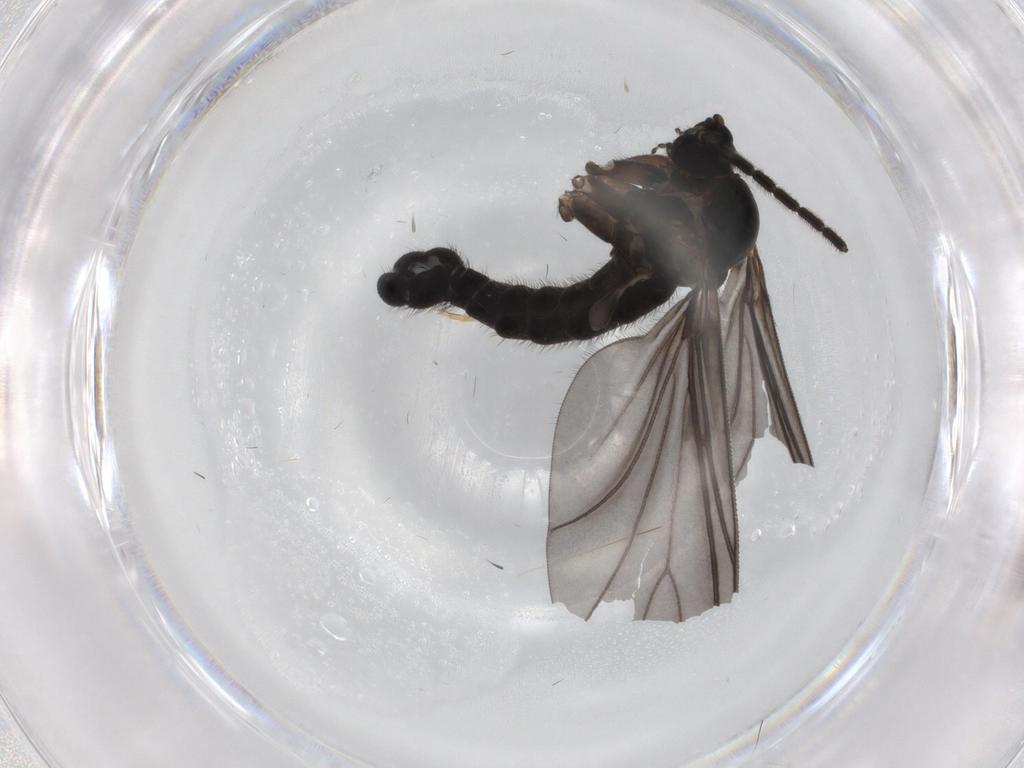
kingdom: Animalia
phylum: Arthropoda
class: Insecta
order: Diptera
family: Sciaridae
